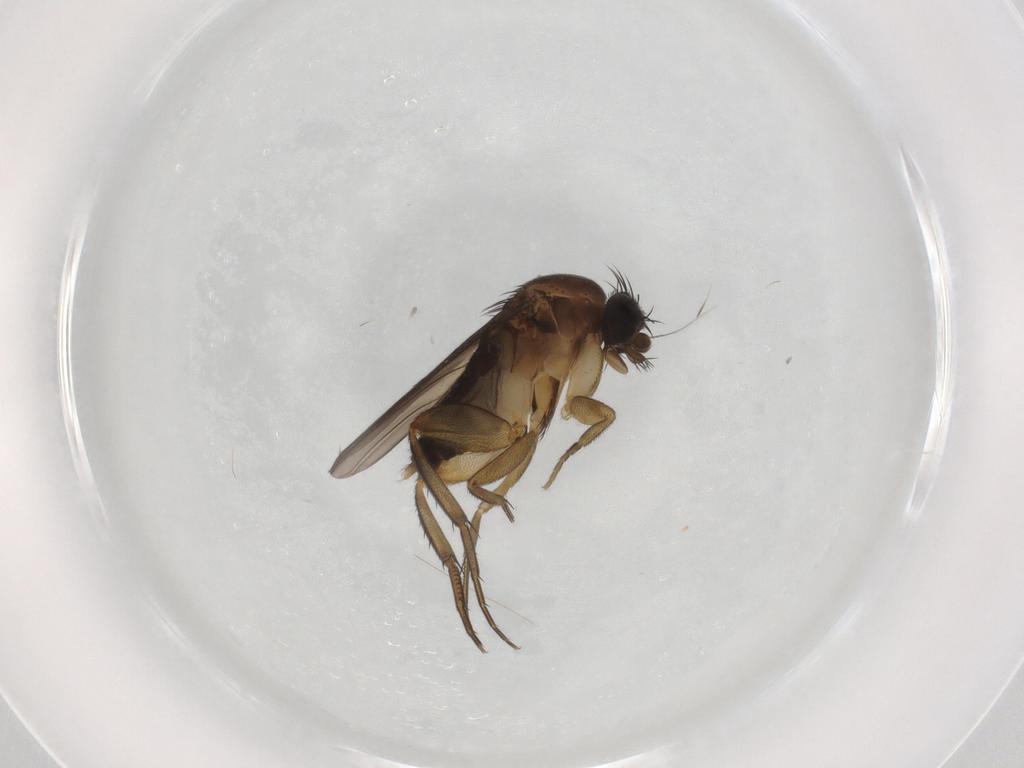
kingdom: Animalia
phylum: Arthropoda
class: Insecta
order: Diptera
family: Phoridae
